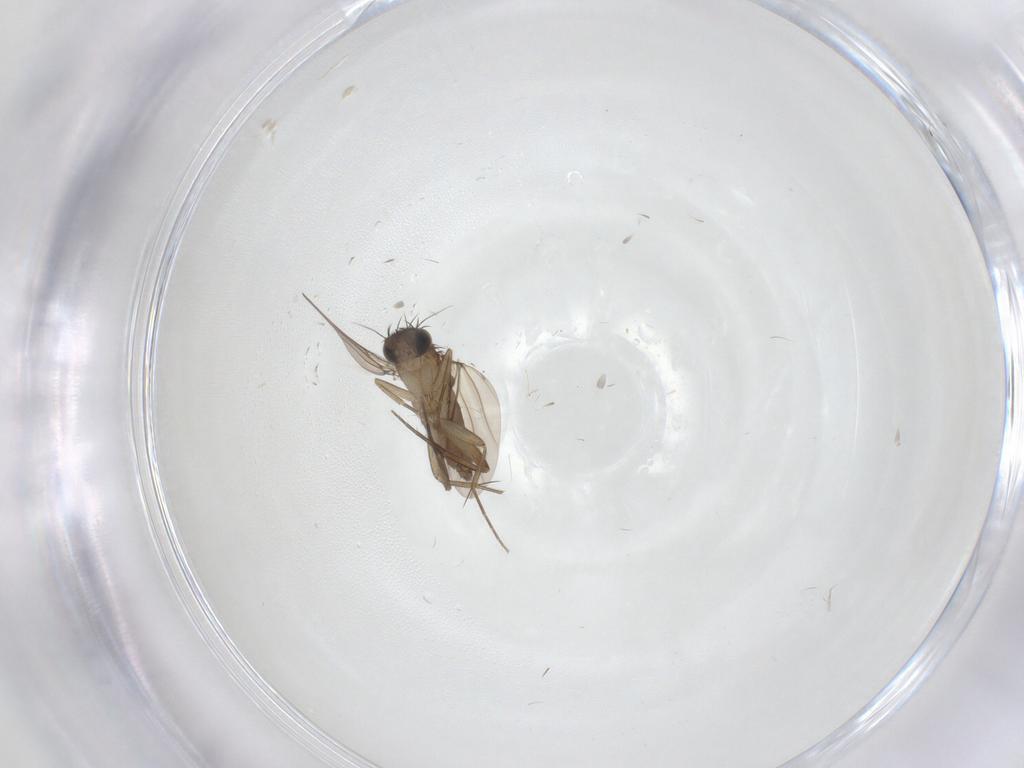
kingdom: Animalia
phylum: Arthropoda
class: Insecta
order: Diptera
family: Phoridae
